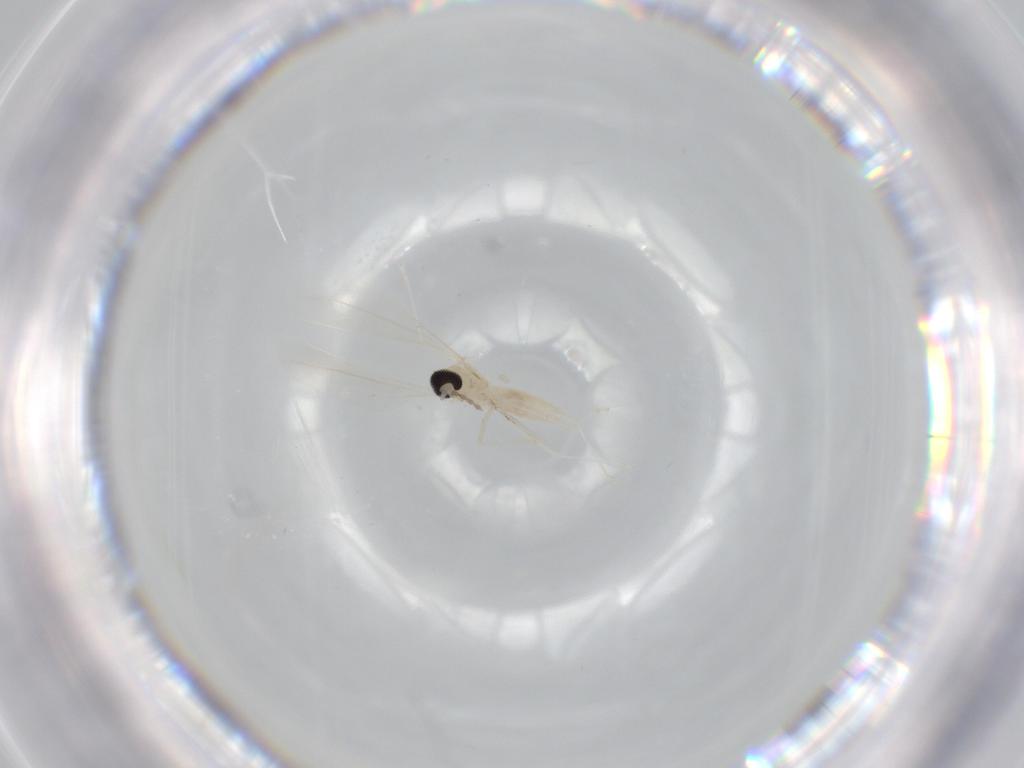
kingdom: Animalia
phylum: Arthropoda
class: Insecta
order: Diptera
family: Cecidomyiidae
